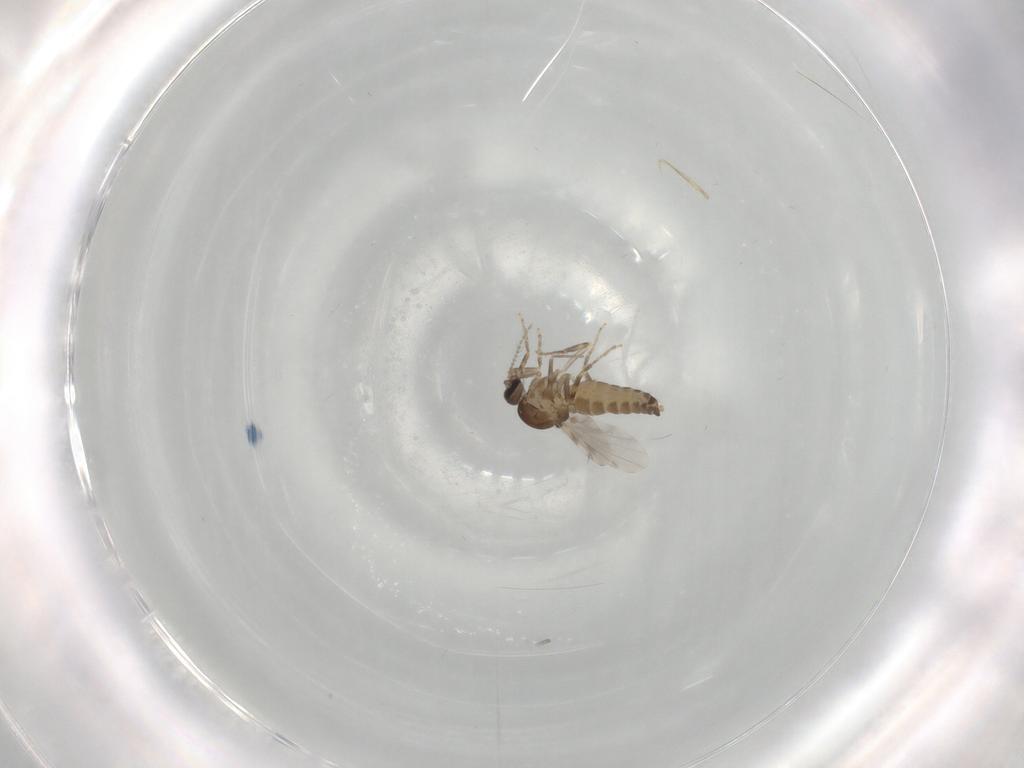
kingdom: Animalia
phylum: Arthropoda
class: Insecta
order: Diptera
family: Ceratopogonidae
